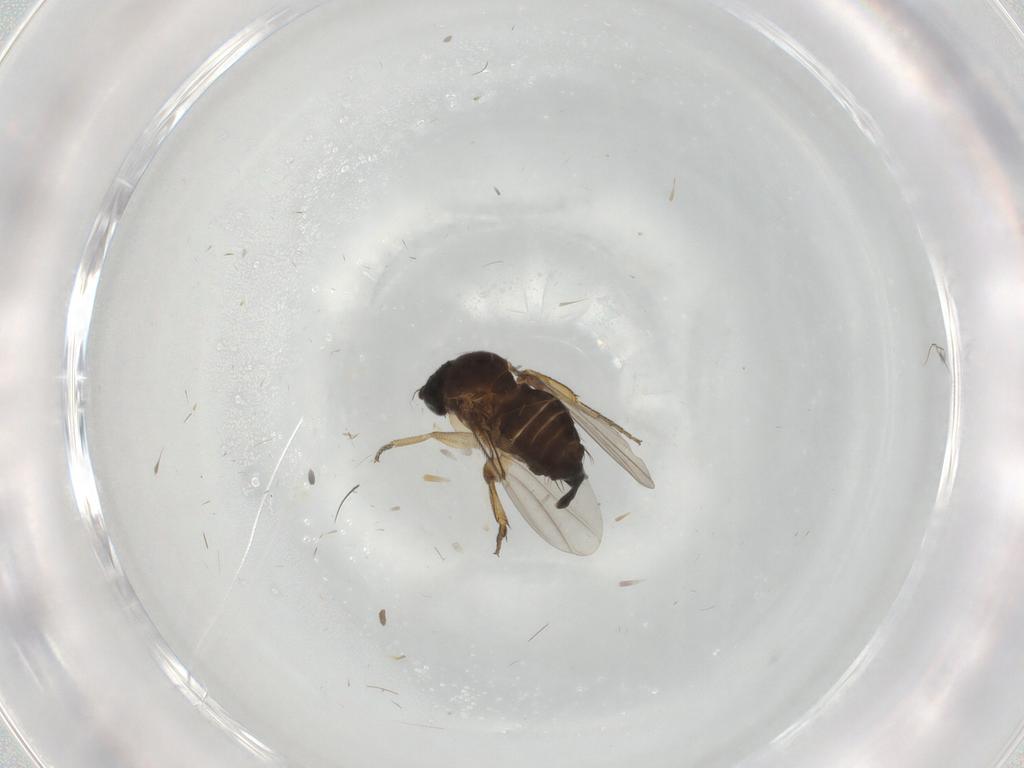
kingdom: Animalia
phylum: Arthropoda
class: Insecta
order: Diptera
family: Phoridae
